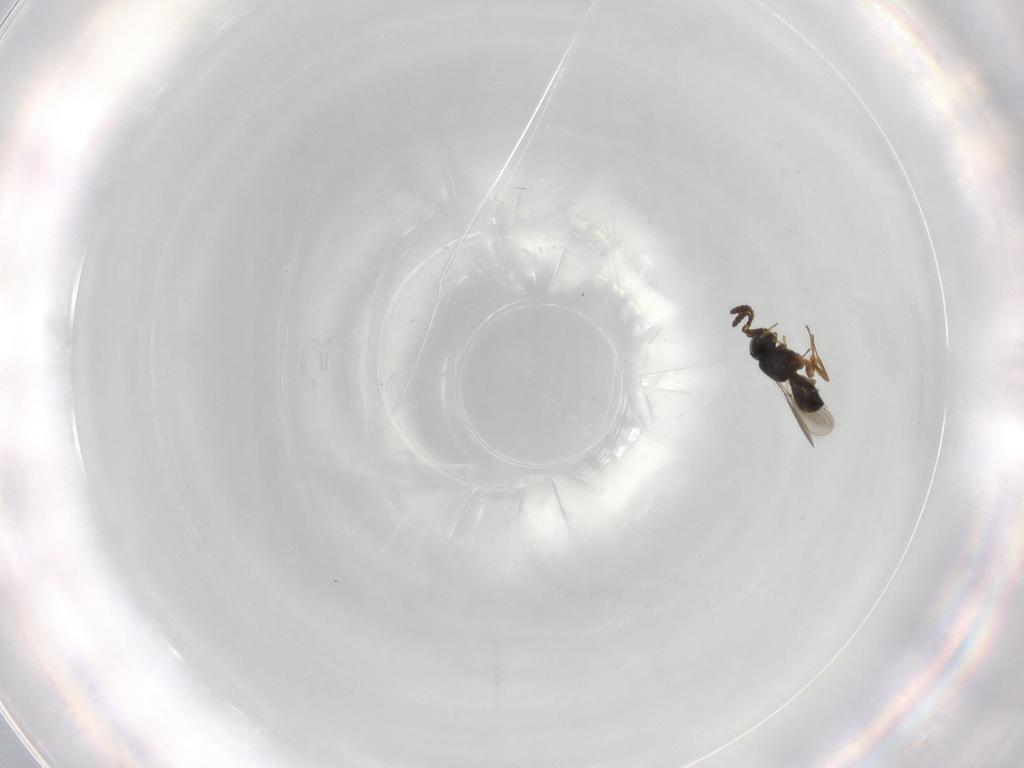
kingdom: Animalia
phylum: Arthropoda
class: Insecta
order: Hymenoptera
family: Scelionidae
